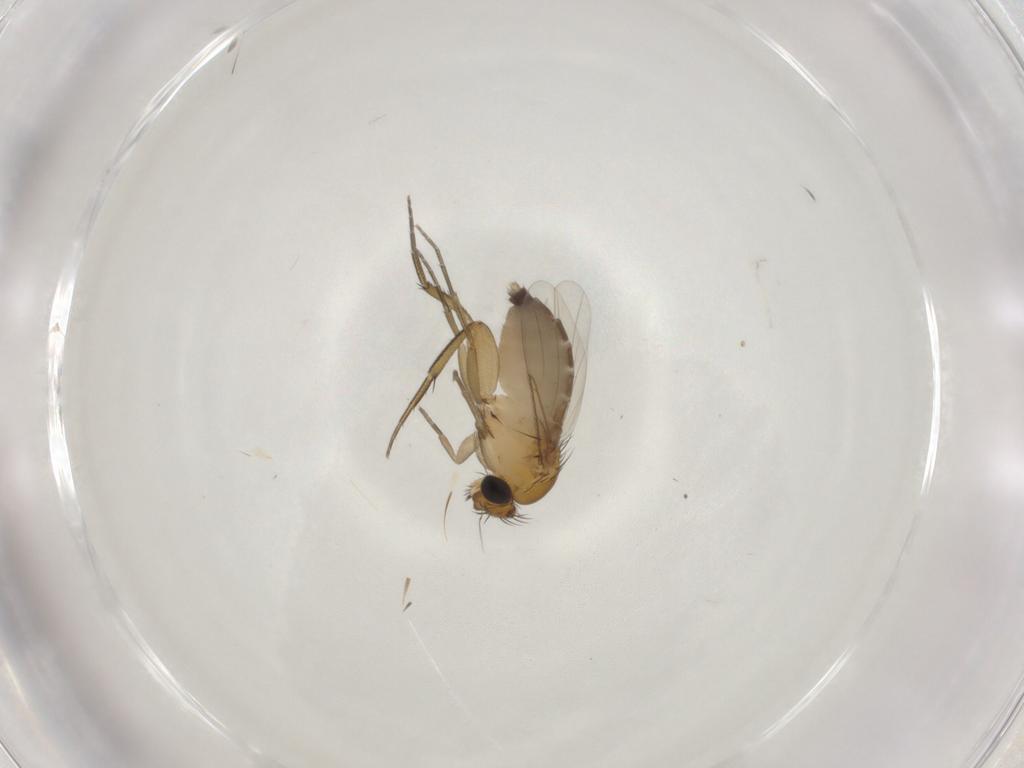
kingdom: Animalia
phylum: Arthropoda
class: Insecta
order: Diptera
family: Phoridae
